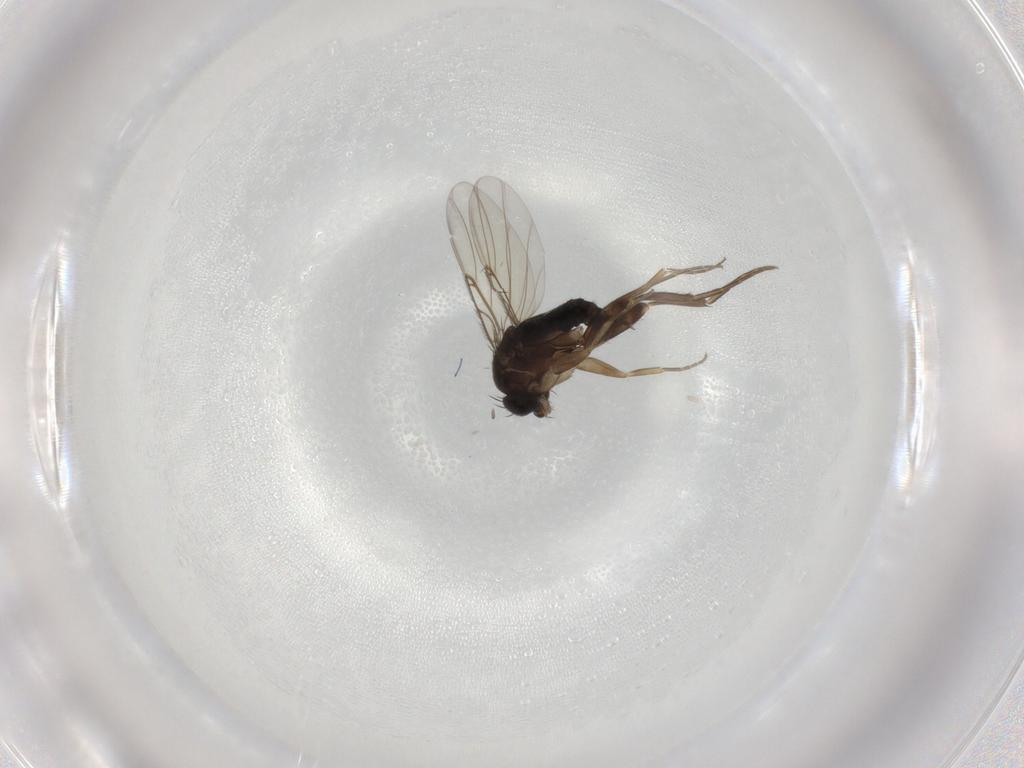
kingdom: Animalia
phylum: Arthropoda
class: Insecta
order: Diptera
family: Phoridae
